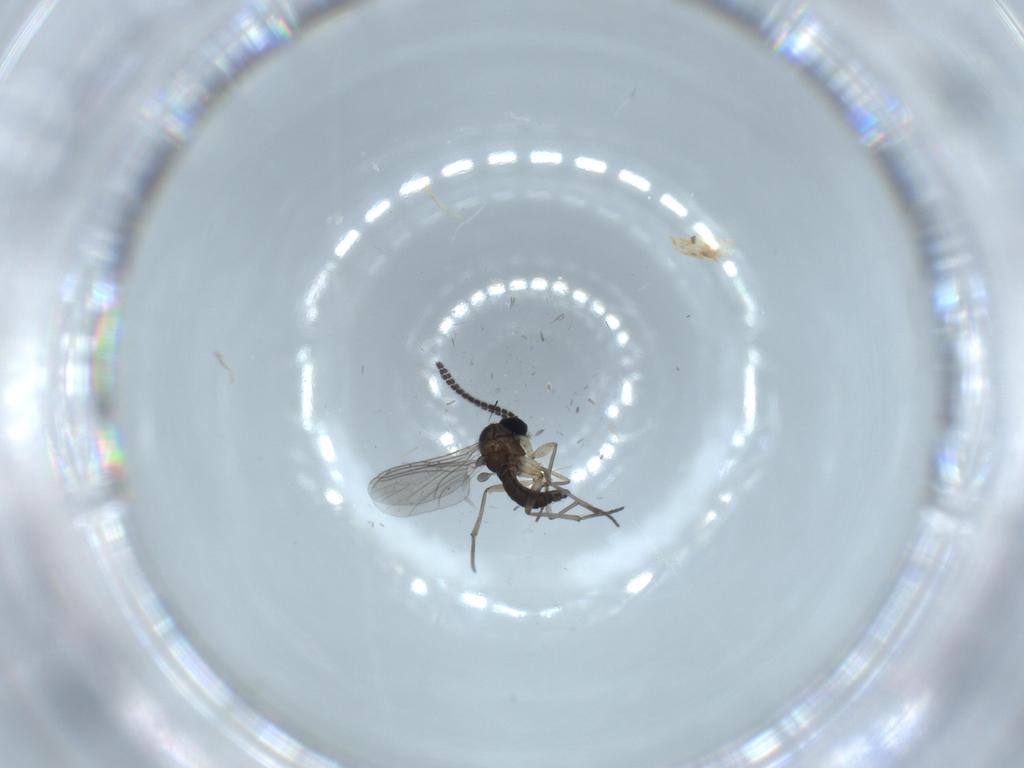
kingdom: Animalia
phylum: Arthropoda
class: Insecta
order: Diptera
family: Sciaridae
